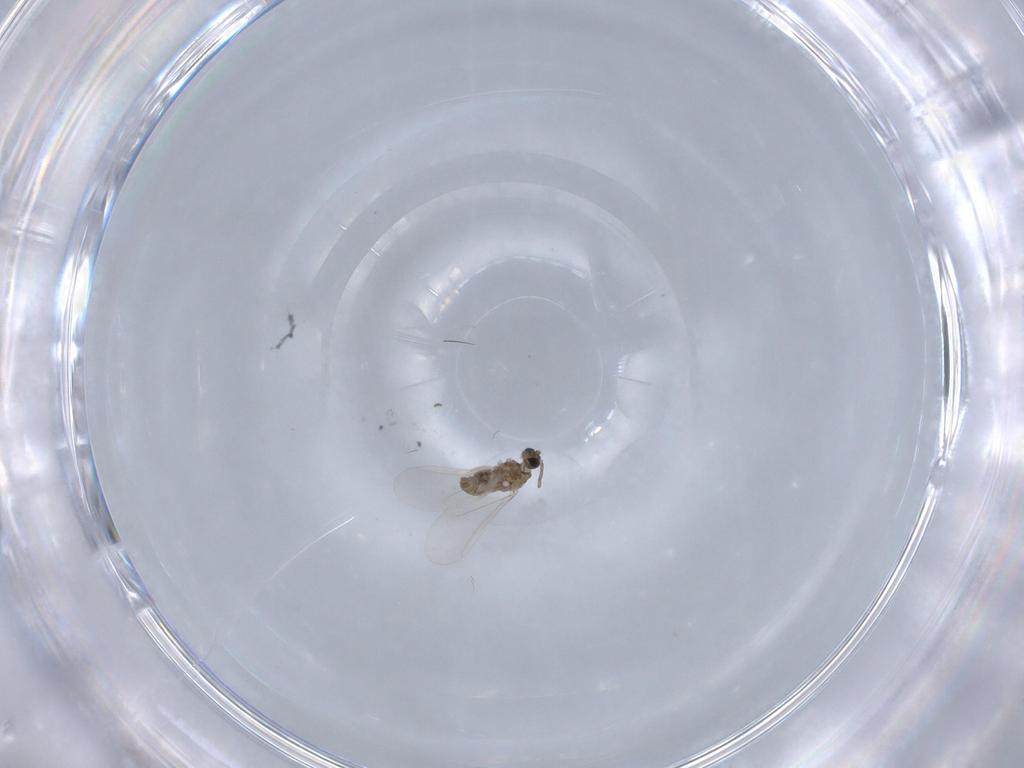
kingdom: Animalia
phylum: Arthropoda
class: Insecta
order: Diptera
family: Cecidomyiidae
